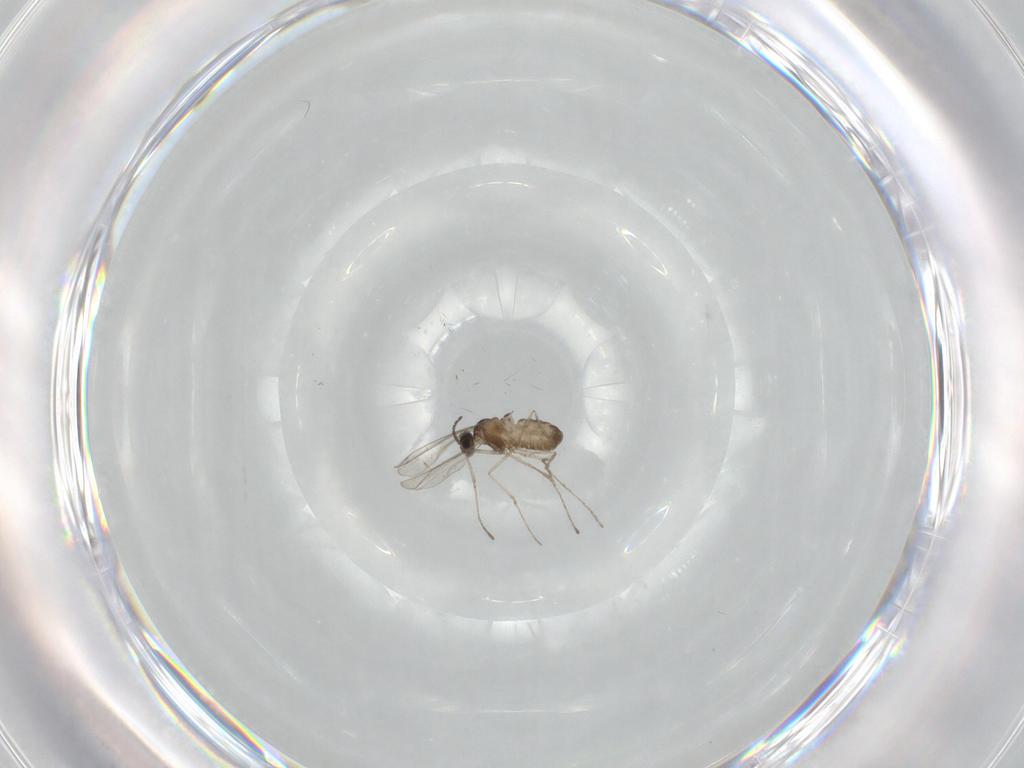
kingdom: Animalia
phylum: Arthropoda
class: Insecta
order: Diptera
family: Cecidomyiidae
